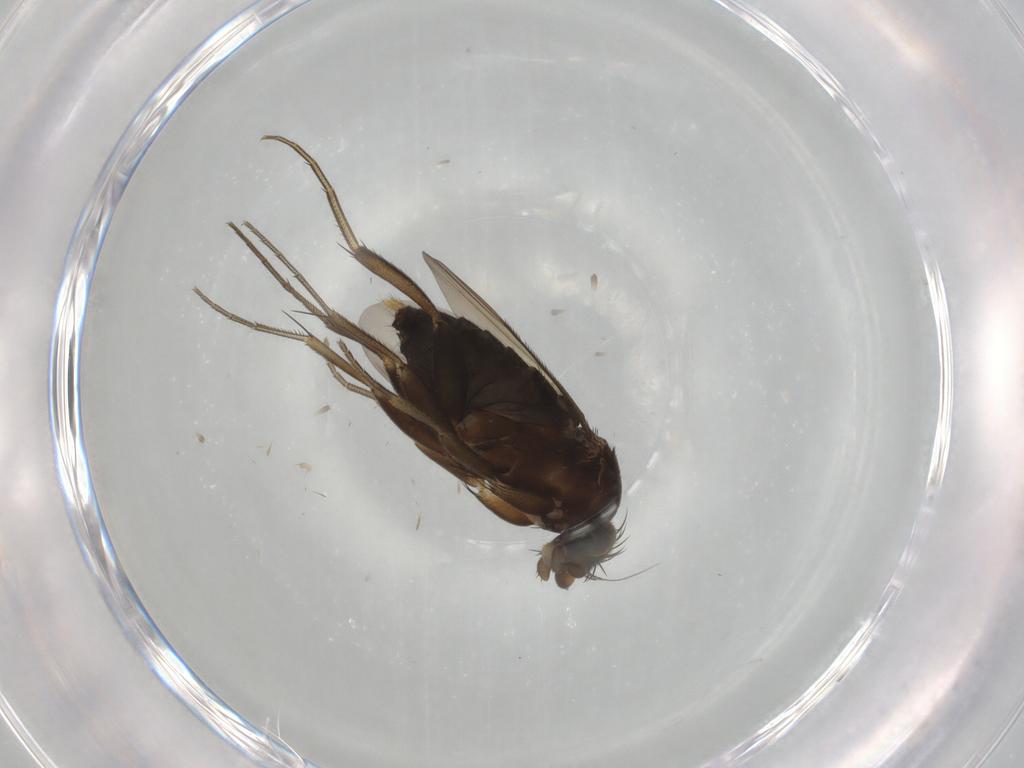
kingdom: Animalia
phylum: Arthropoda
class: Insecta
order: Diptera
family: Phoridae
